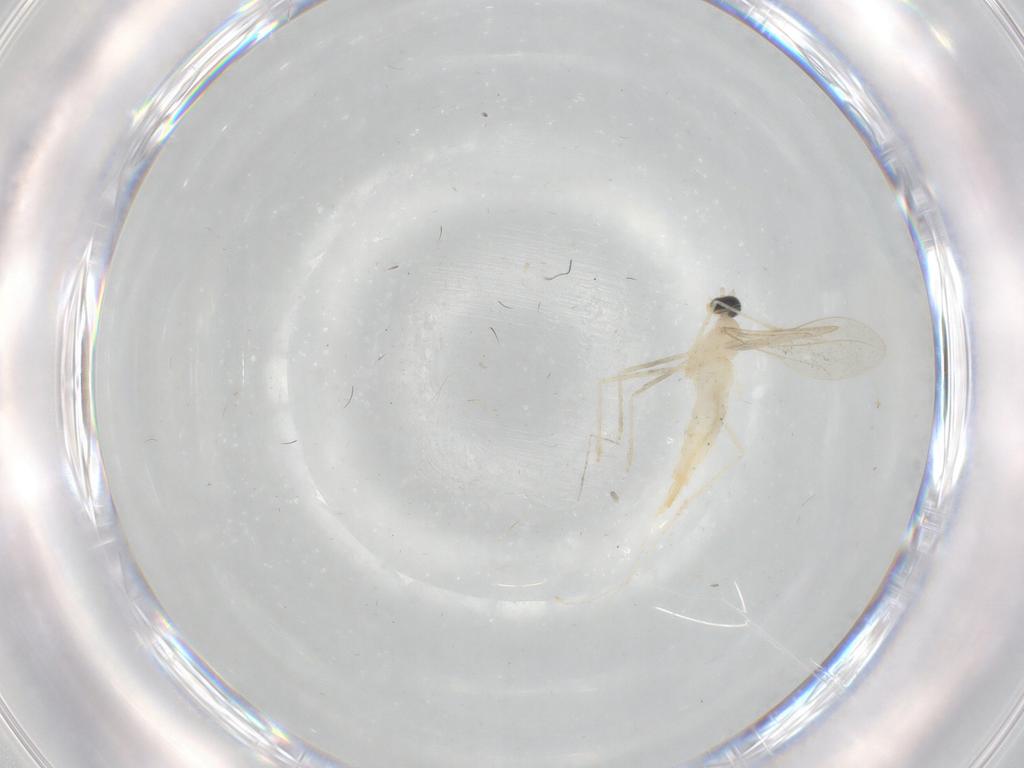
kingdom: Animalia
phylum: Arthropoda
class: Insecta
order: Diptera
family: Cecidomyiidae
